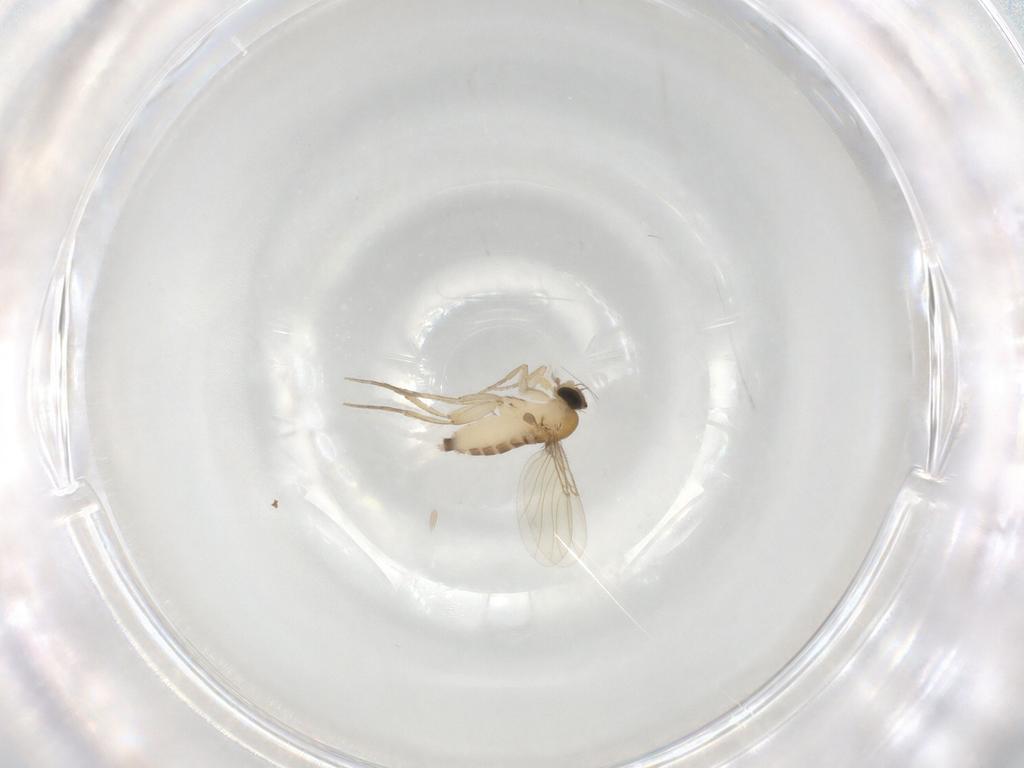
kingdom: Animalia
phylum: Arthropoda
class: Insecta
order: Diptera
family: Phoridae
